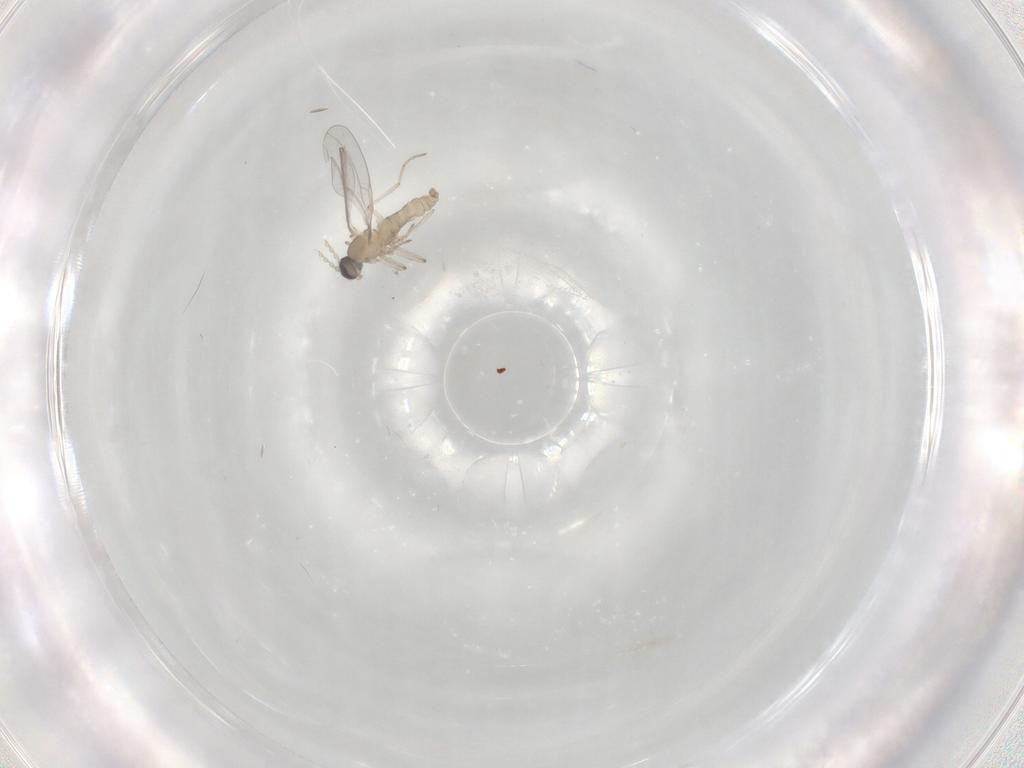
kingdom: Animalia
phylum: Arthropoda
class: Insecta
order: Diptera
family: Cecidomyiidae
